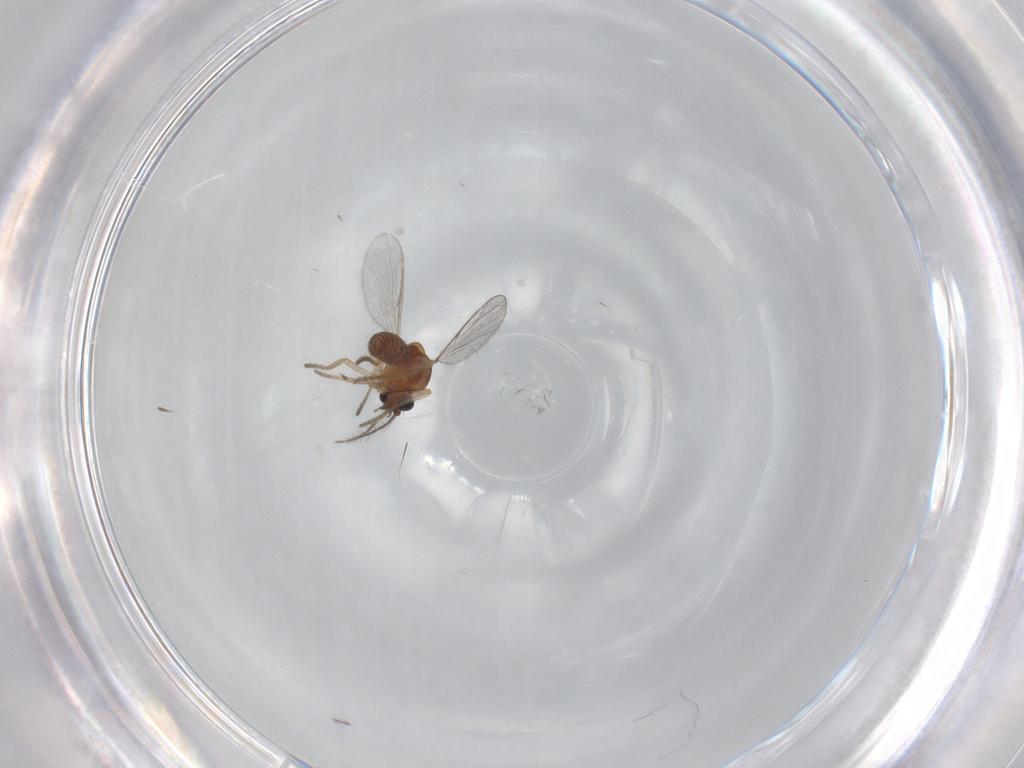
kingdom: Animalia
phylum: Arthropoda
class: Insecta
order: Diptera
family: Ceratopogonidae
